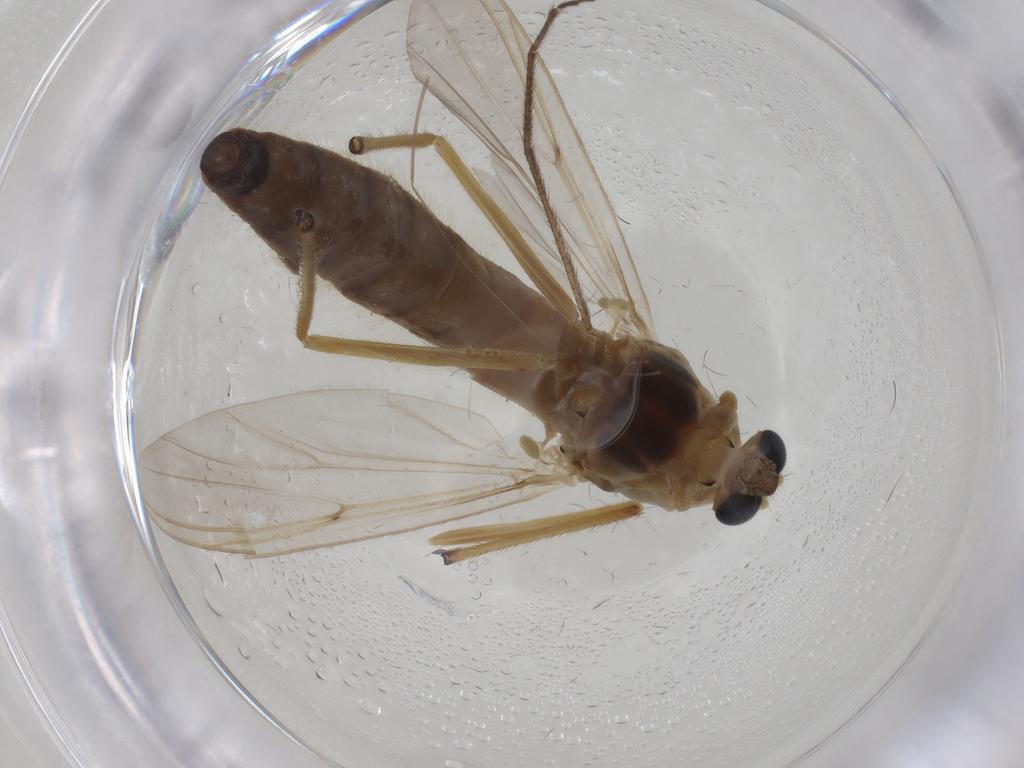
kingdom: Animalia
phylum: Arthropoda
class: Insecta
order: Diptera
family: Chironomidae
